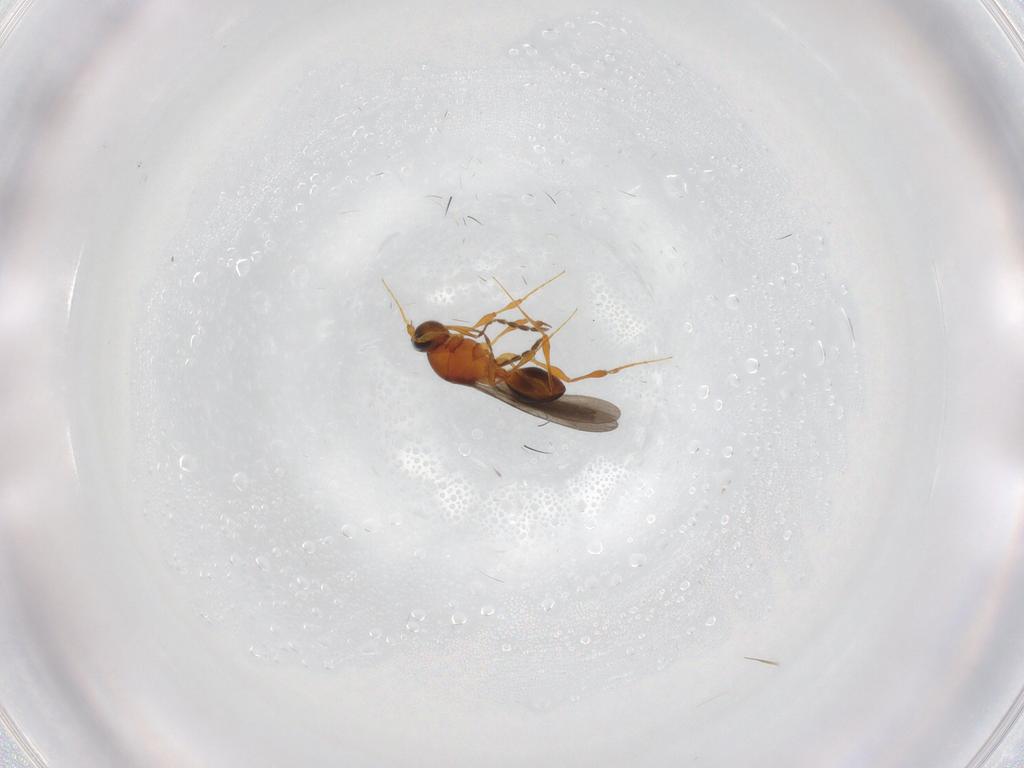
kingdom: Animalia
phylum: Arthropoda
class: Insecta
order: Hymenoptera
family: Platygastridae
